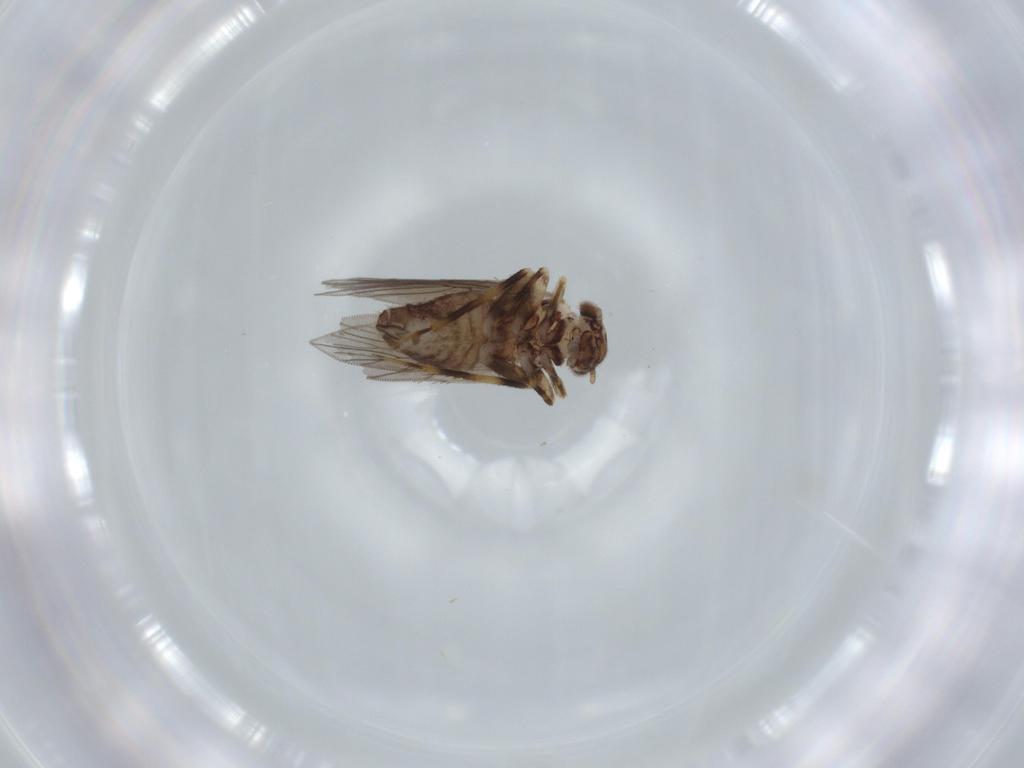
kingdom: Animalia
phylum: Arthropoda
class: Insecta
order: Psocodea
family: Lepidopsocidae
